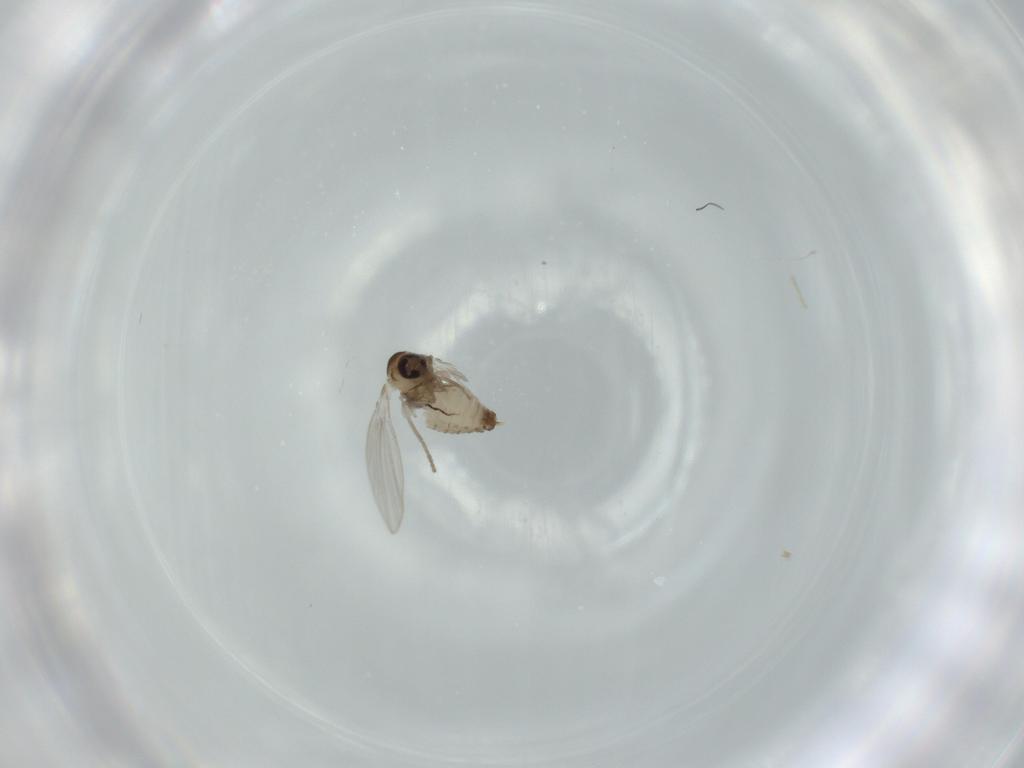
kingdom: Animalia
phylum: Arthropoda
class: Insecta
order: Diptera
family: Psychodidae
